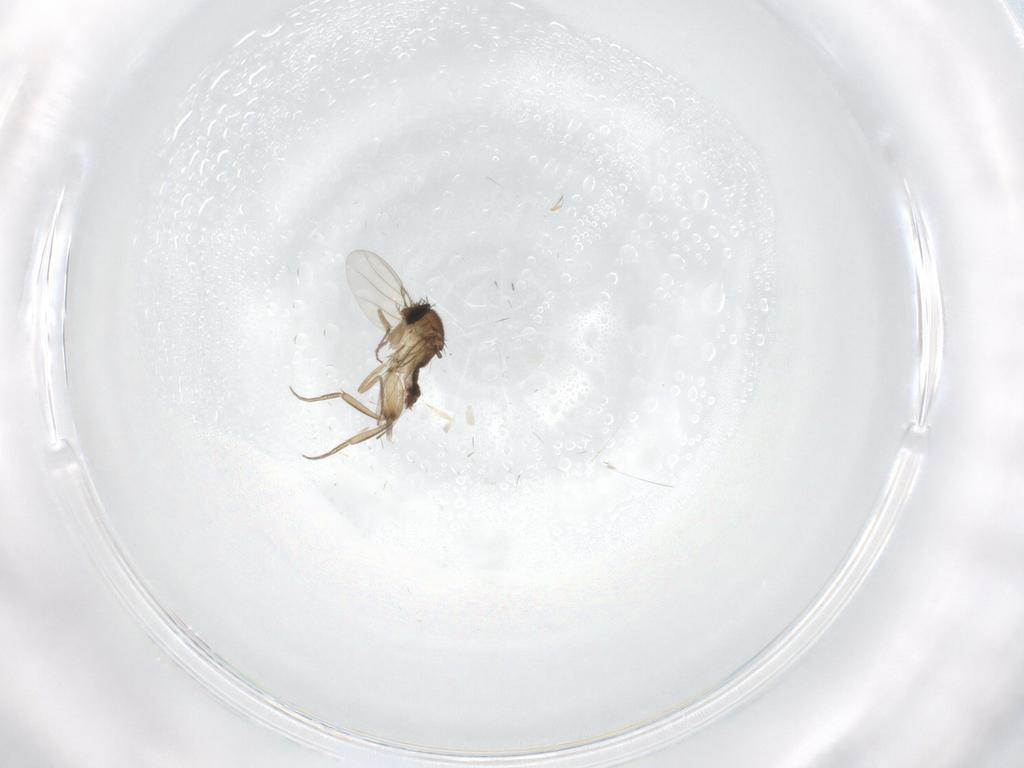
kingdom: Animalia
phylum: Arthropoda
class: Insecta
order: Diptera
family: Phoridae
